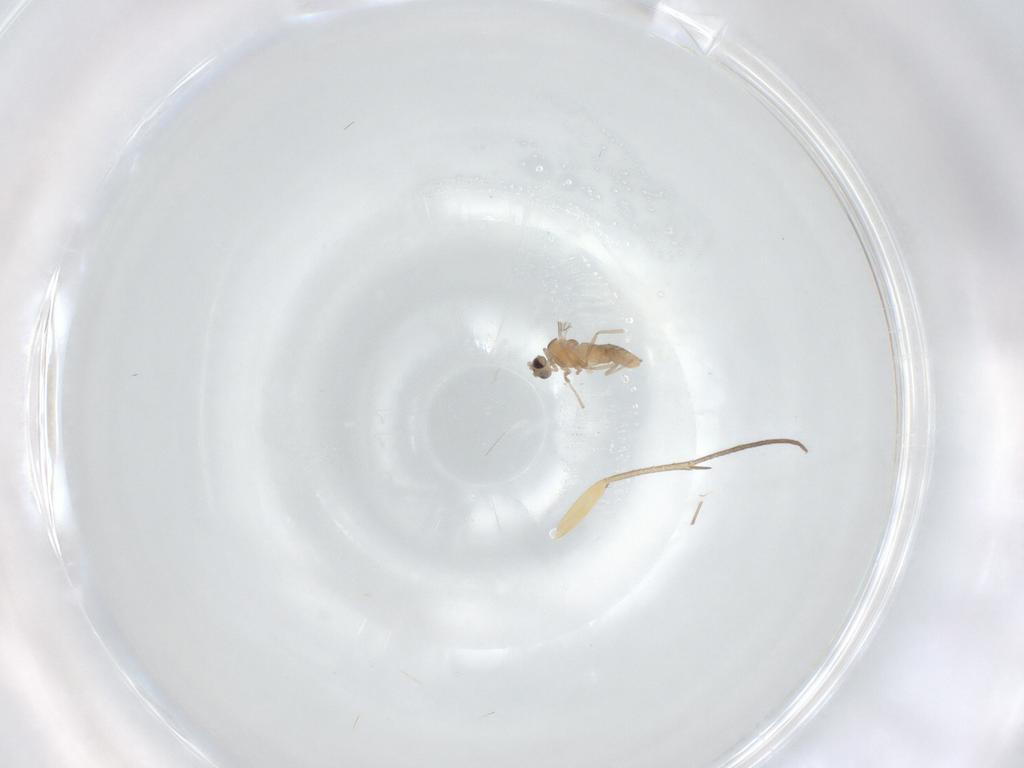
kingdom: Animalia
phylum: Arthropoda
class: Insecta
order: Diptera
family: Cecidomyiidae
